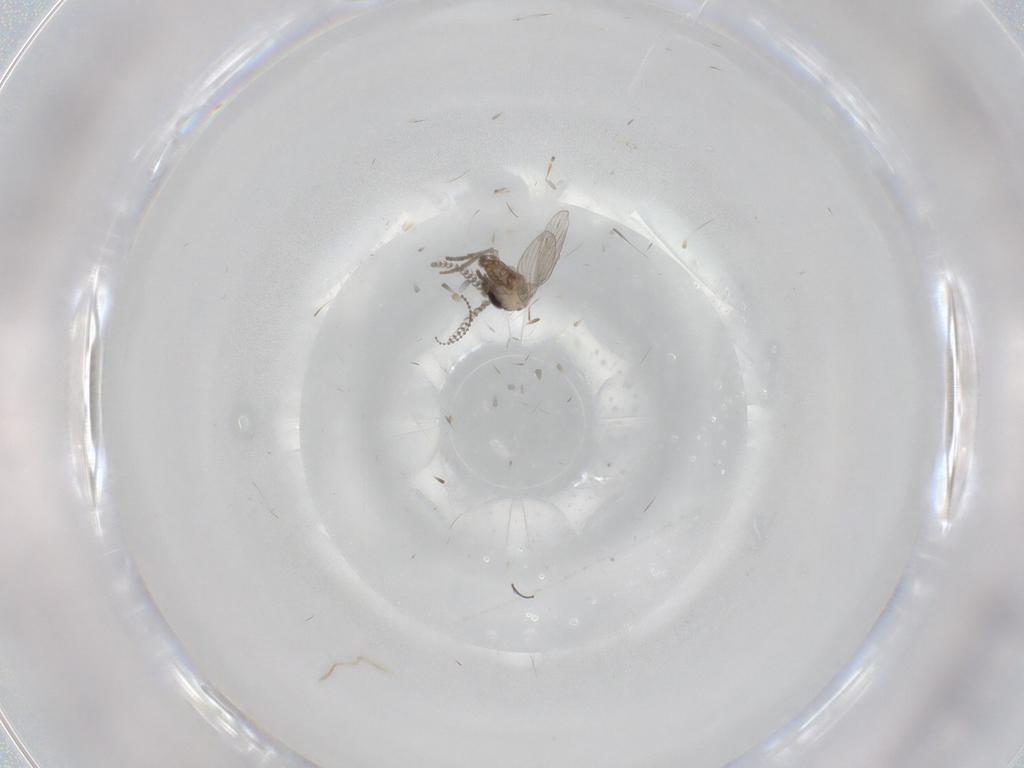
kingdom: Animalia
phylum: Arthropoda
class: Insecta
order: Diptera
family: Psychodidae
